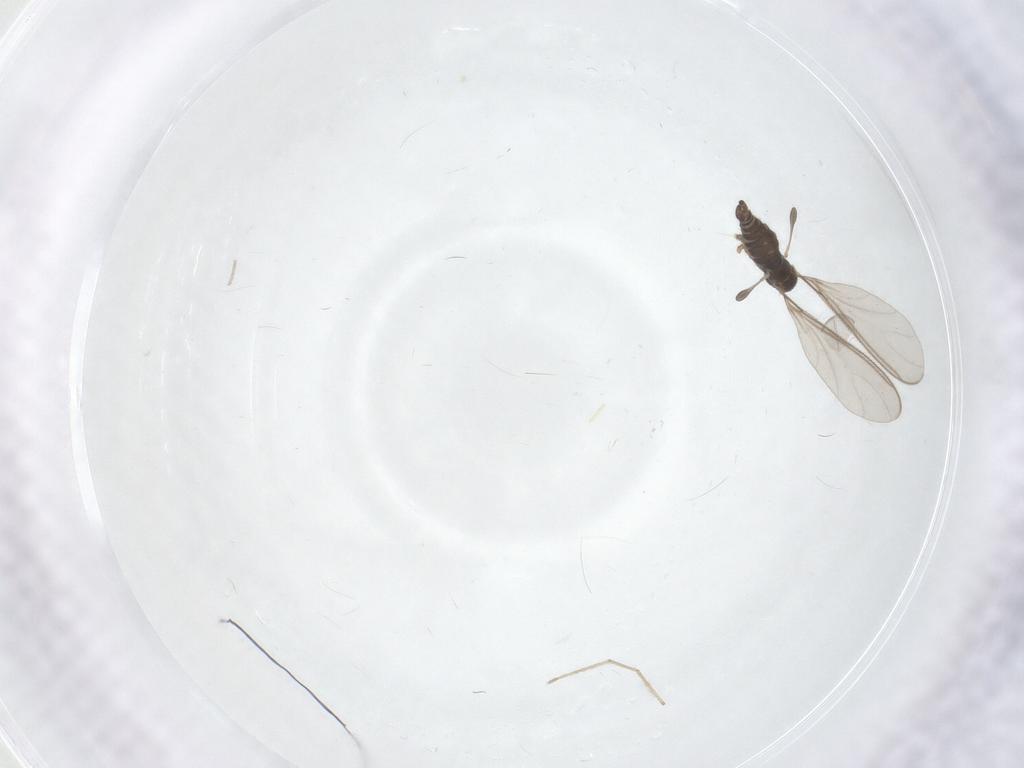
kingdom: Animalia
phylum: Arthropoda
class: Insecta
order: Diptera
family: Sciaridae
